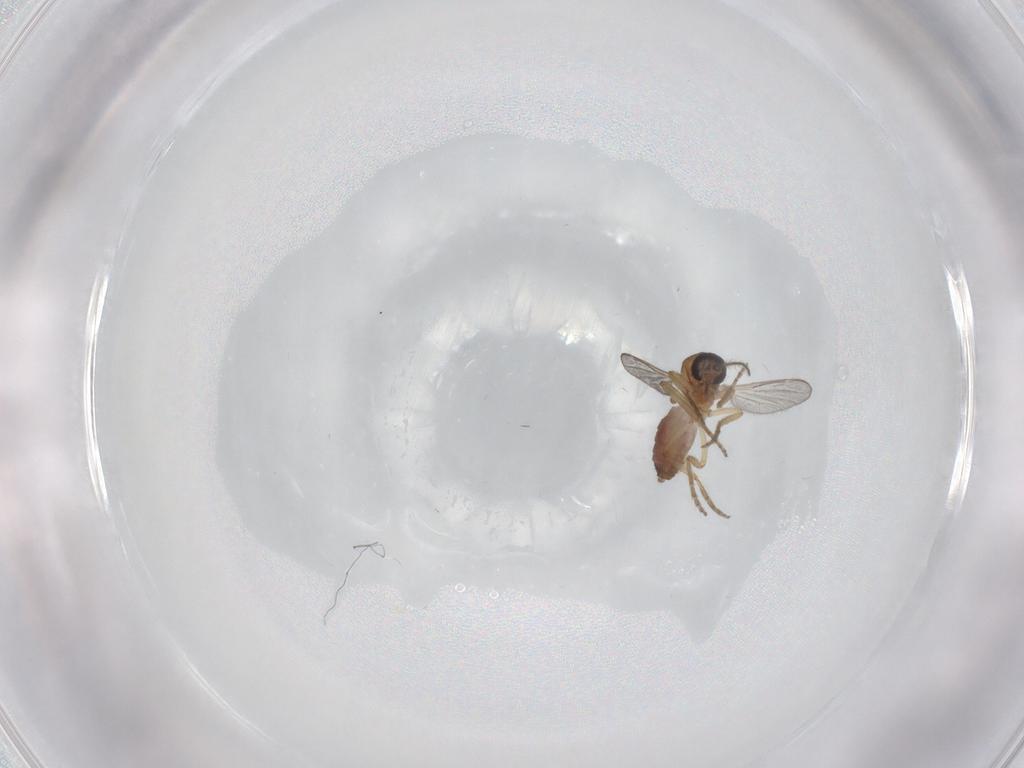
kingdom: Animalia
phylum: Arthropoda
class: Insecta
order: Diptera
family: Ceratopogonidae
